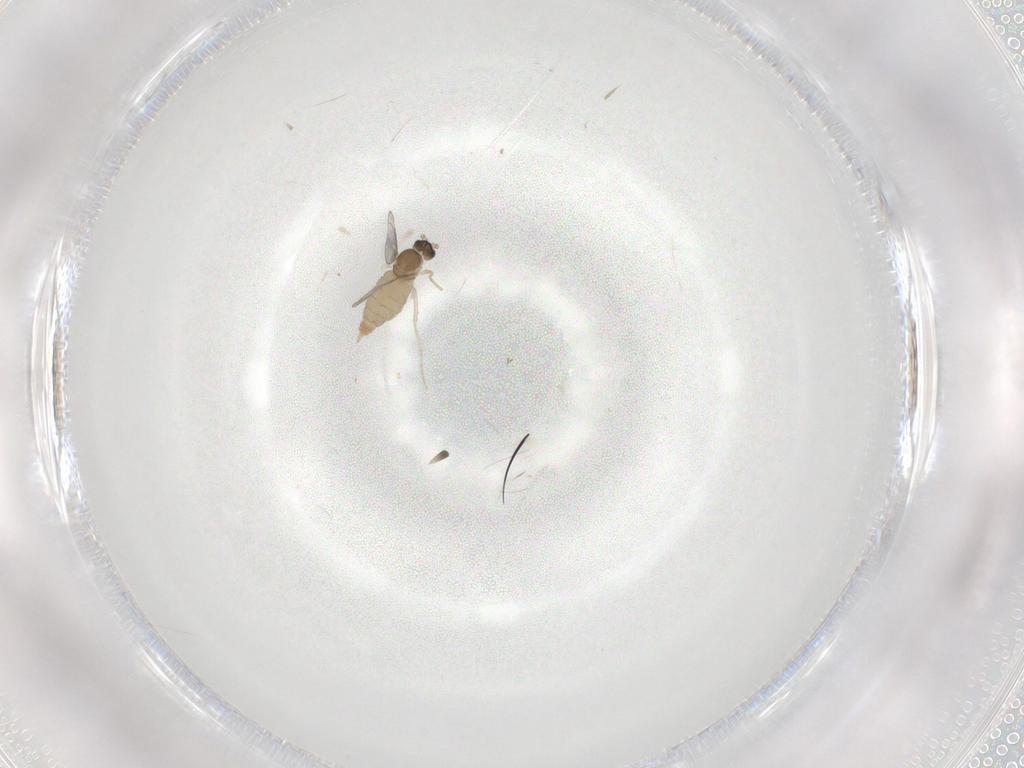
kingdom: Animalia
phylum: Arthropoda
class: Insecta
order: Diptera
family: Cecidomyiidae
